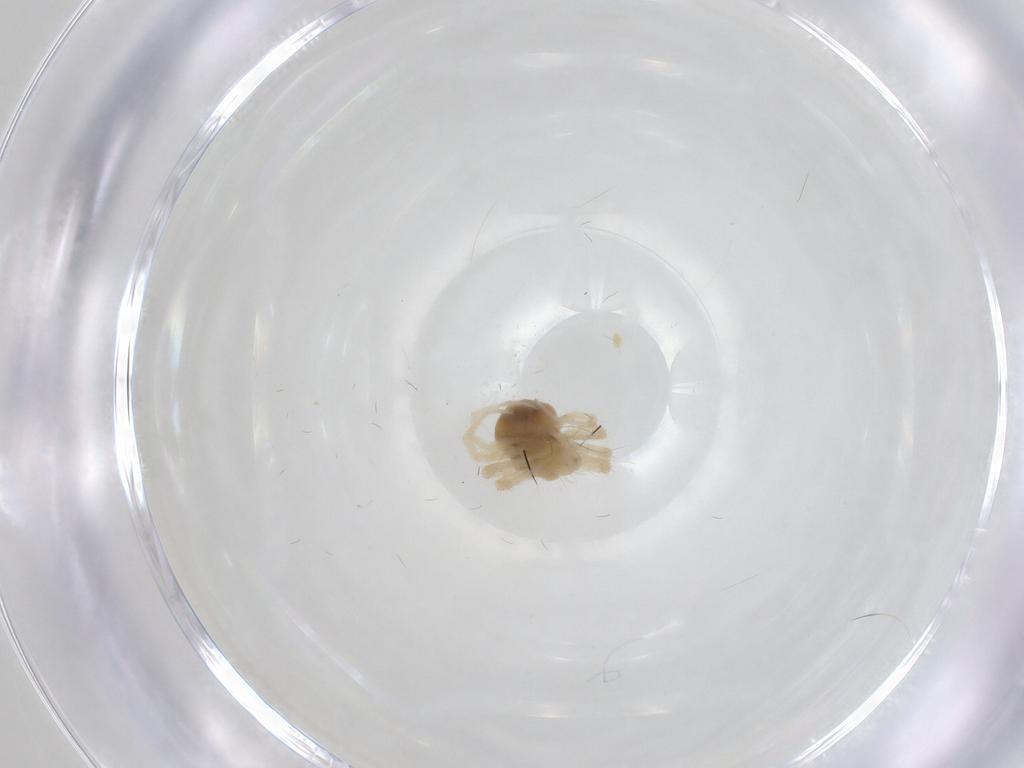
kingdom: Animalia
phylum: Arthropoda
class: Arachnida
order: Trombidiformes
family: Anystidae
